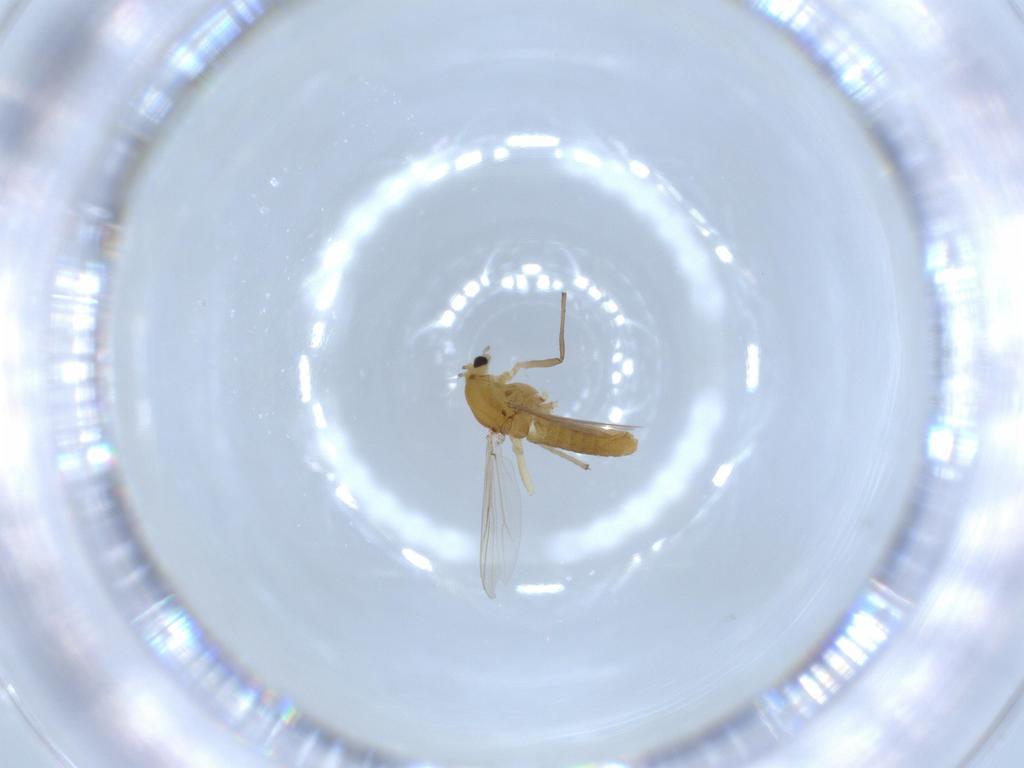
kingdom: Animalia
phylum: Arthropoda
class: Insecta
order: Diptera
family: Chironomidae
